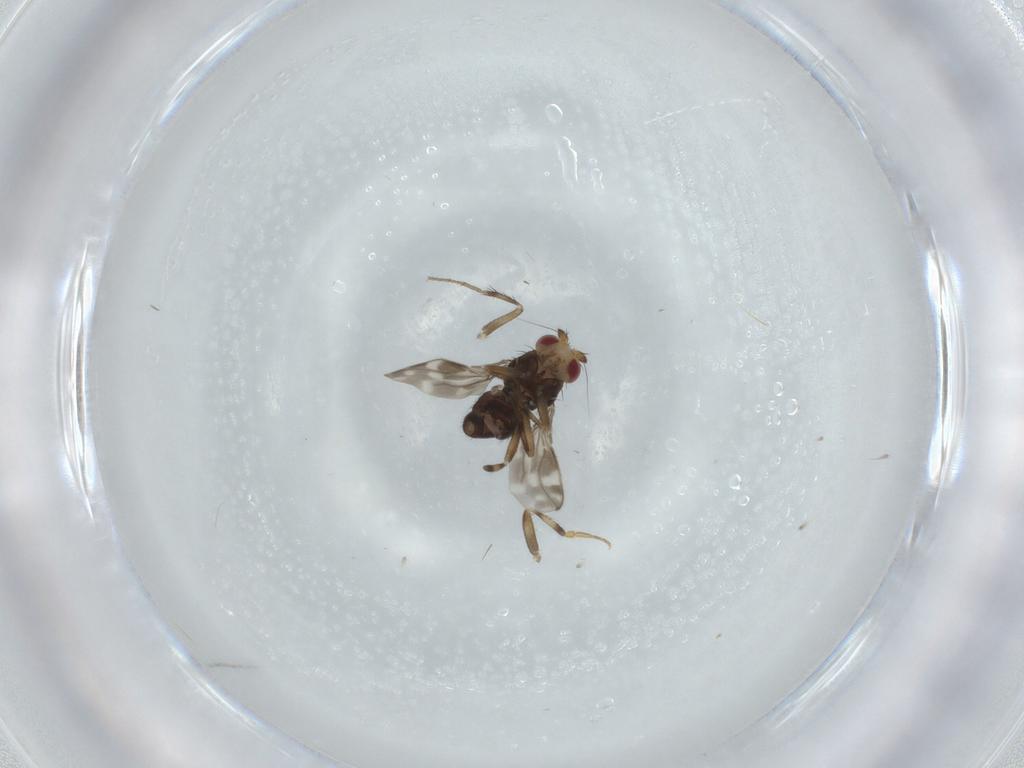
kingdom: Animalia
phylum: Arthropoda
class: Insecta
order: Diptera
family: Sphaeroceridae
